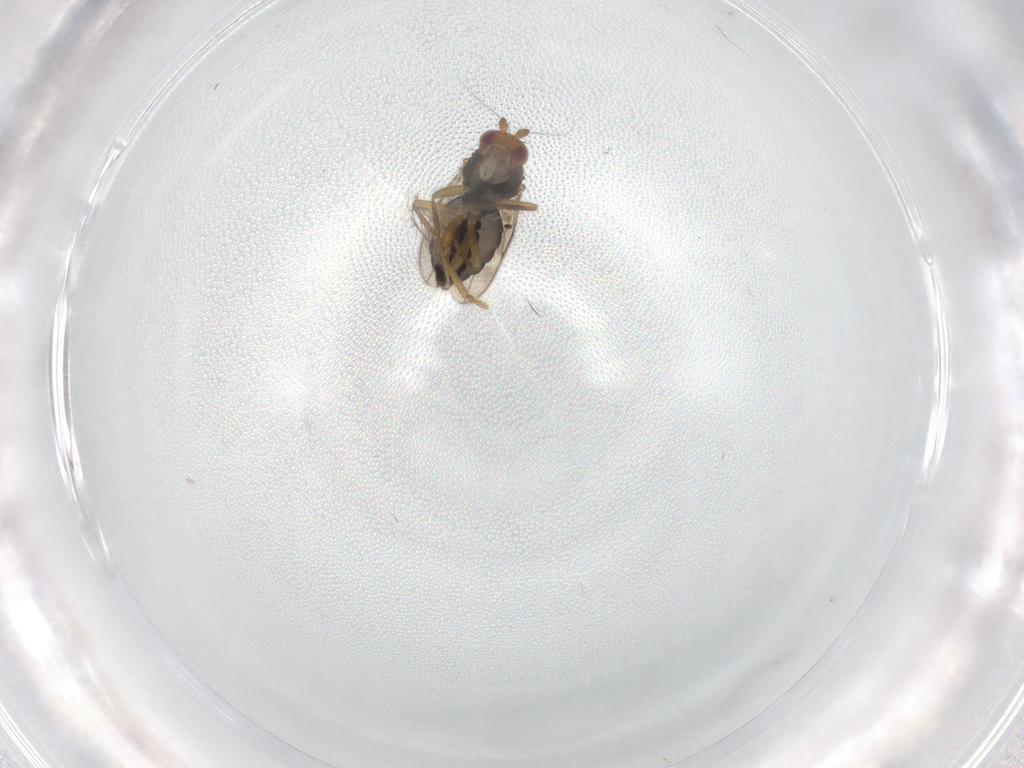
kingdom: Animalia
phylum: Arthropoda
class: Insecta
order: Diptera
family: Sphaeroceridae
